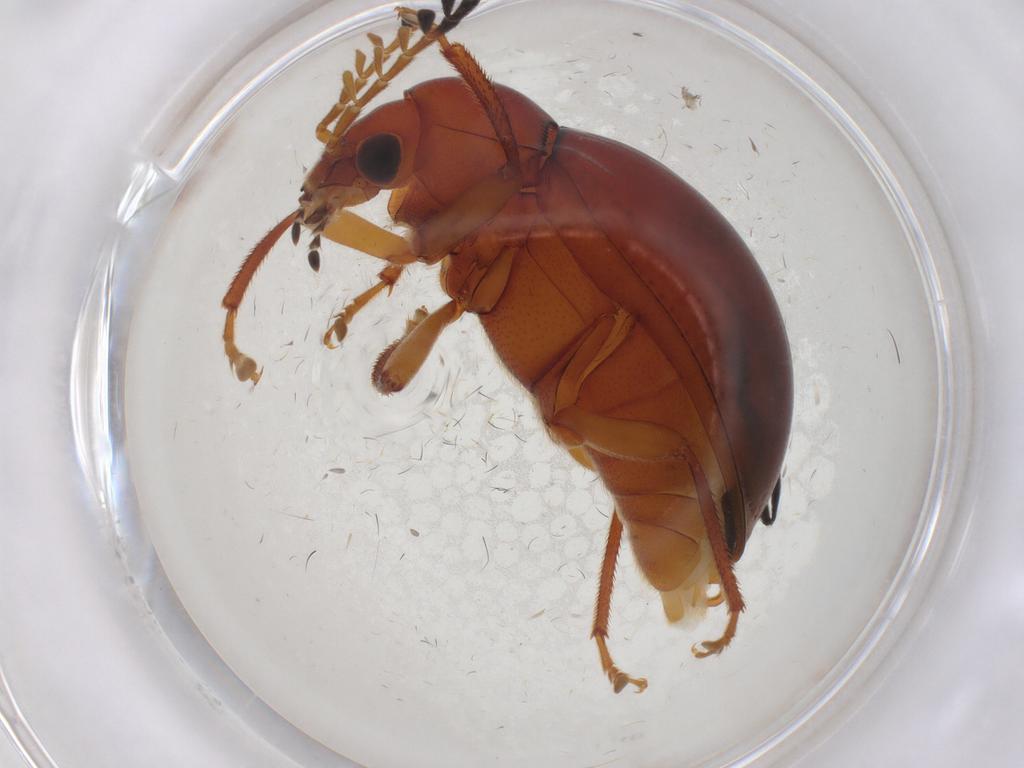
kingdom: Animalia
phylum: Arthropoda
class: Insecta
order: Coleoptera
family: Ptilodactylidae
